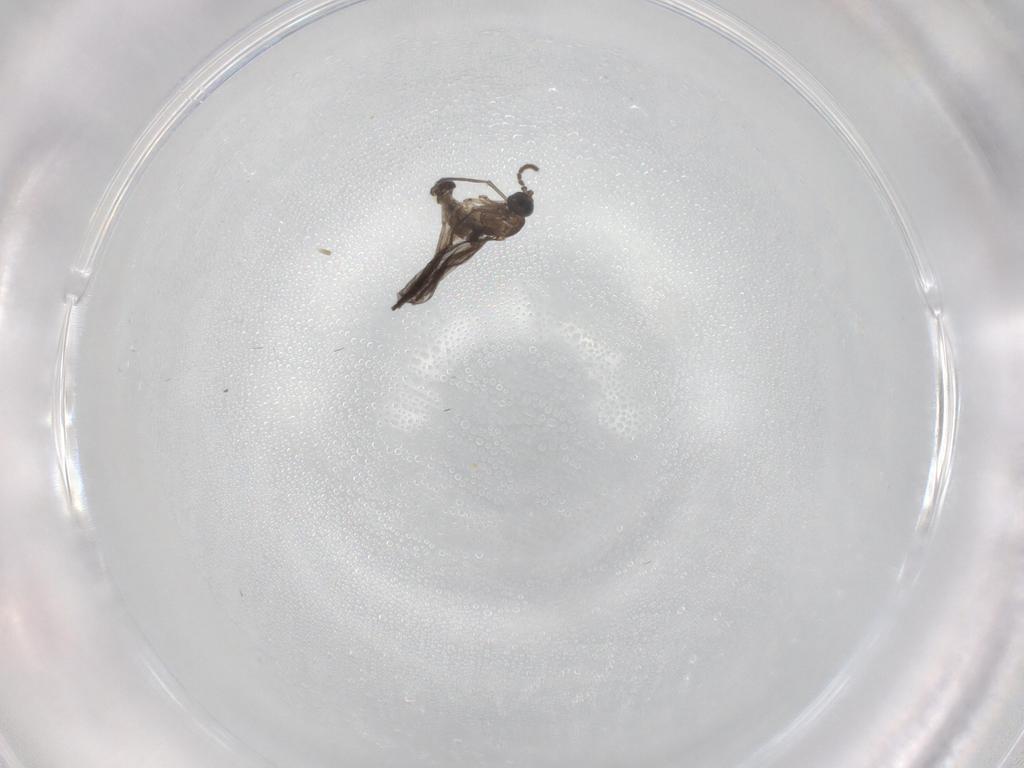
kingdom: Animalia
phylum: Arthropoda
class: Insecta
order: Diptera
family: Sciaridae
